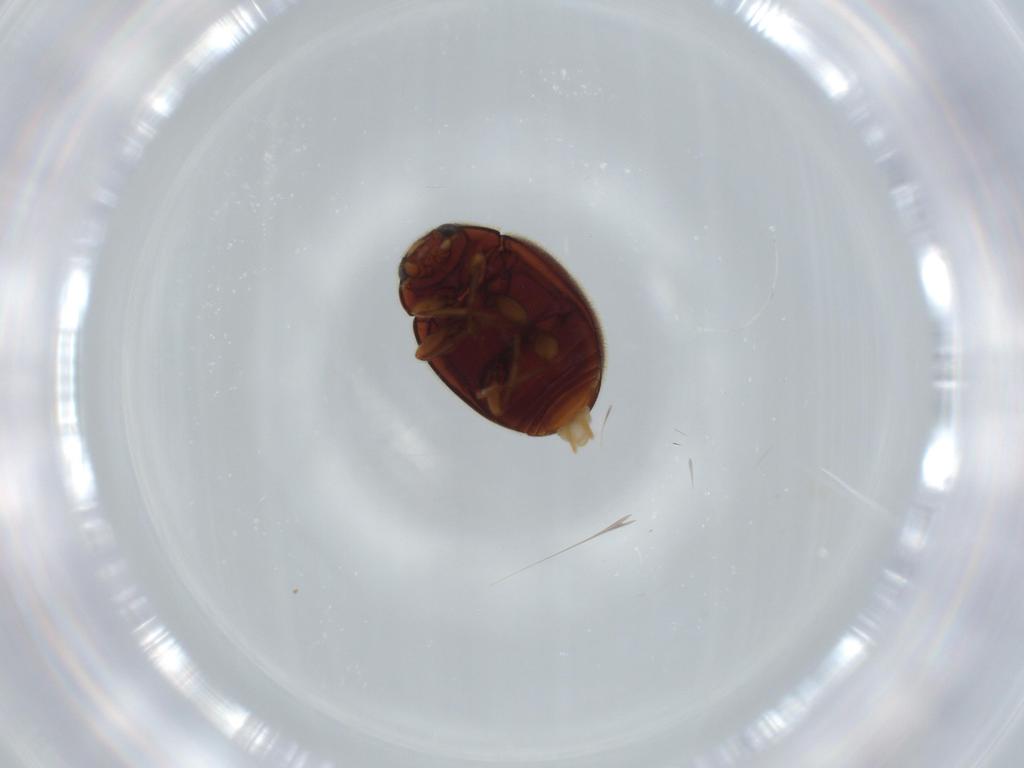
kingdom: Animalia
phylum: Arthropoda
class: Insecta
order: Coleoptera
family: Coccinellidae
